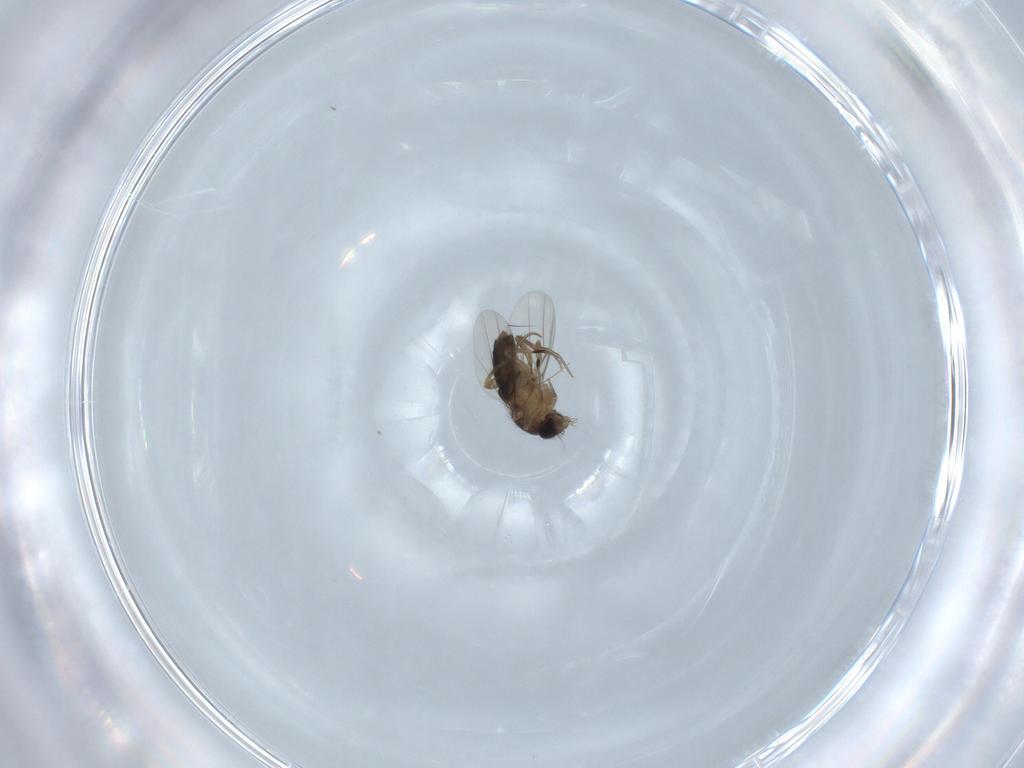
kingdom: Animalia
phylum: Arthropoda
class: Insecta
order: Diptera
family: Phoridae
